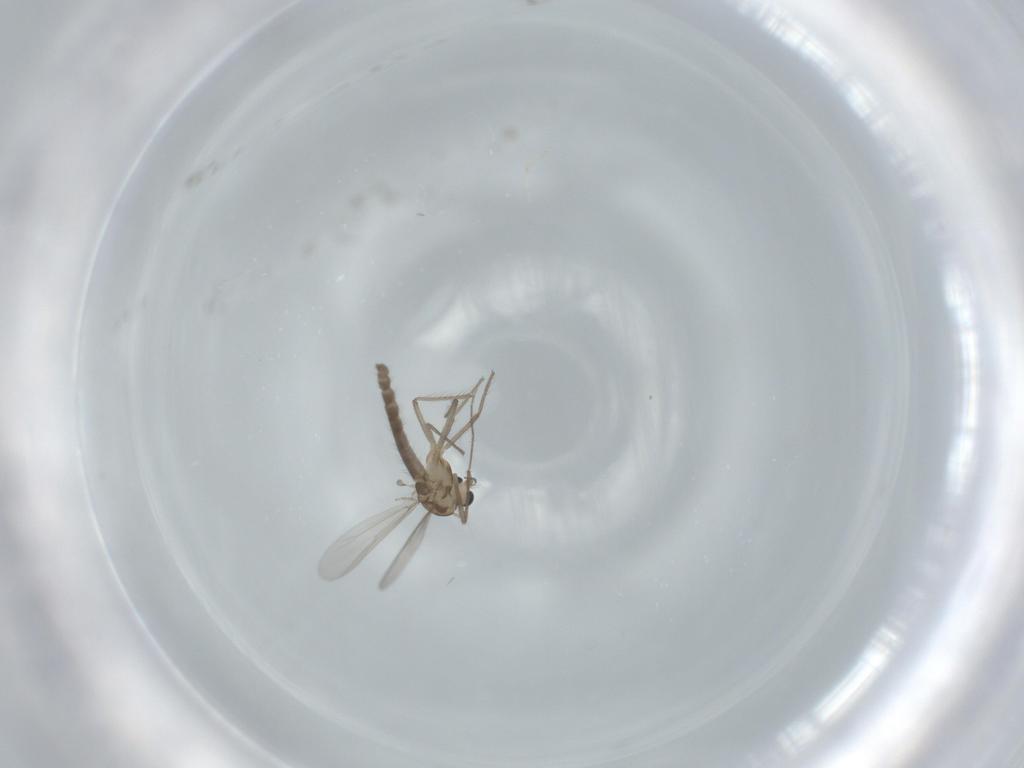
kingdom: Animalia
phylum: Arthropoda
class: Insecta
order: Diptera
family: Chironomidae
